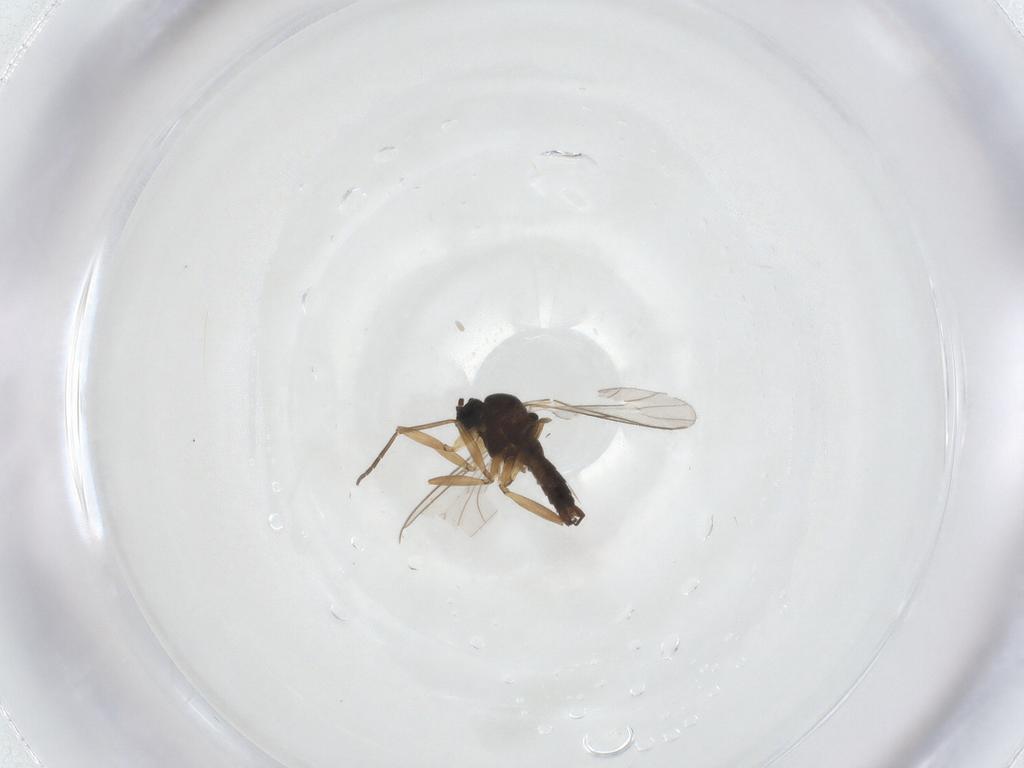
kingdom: Animalia
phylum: Arthropoda
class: Insecta
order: Diptera
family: Sciaridae
